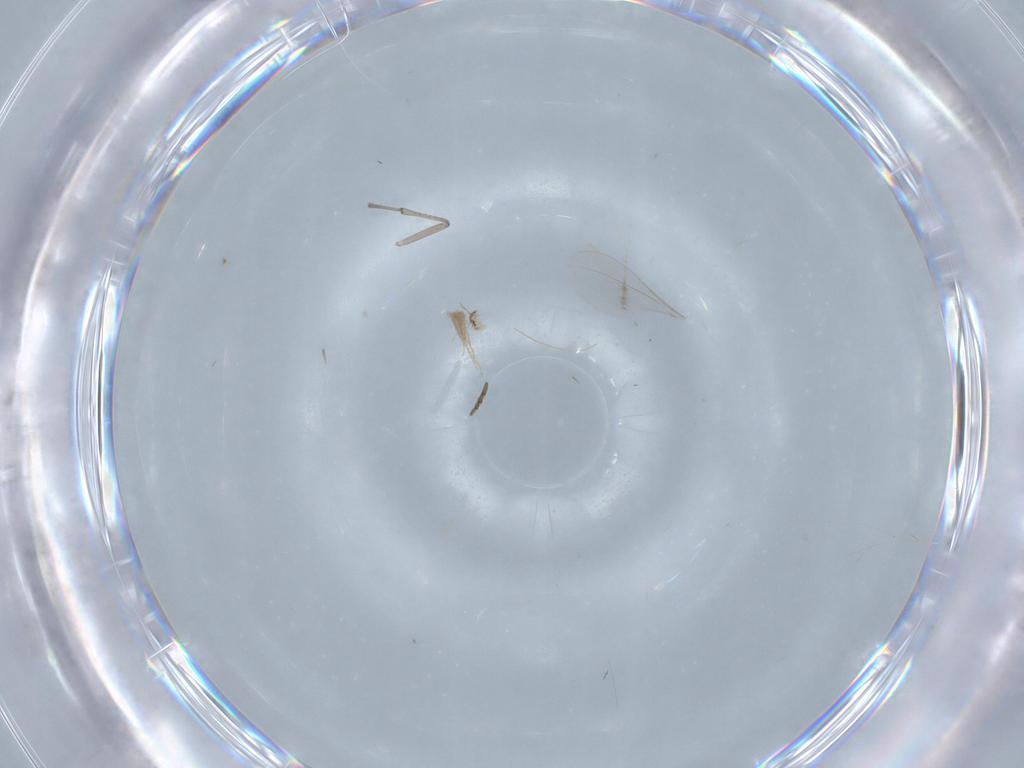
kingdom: Animalia
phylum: Arthropoda
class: Insecta
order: Diptera
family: Psychodidae
